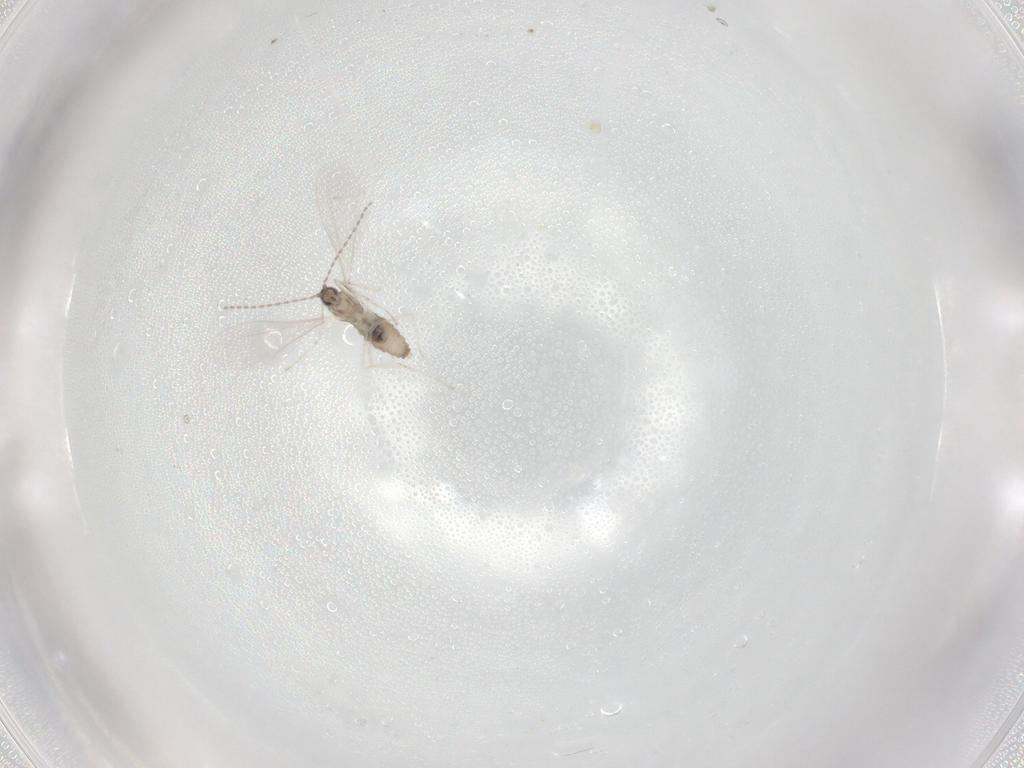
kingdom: Animalia
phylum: Arthropoda
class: Insecta
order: Diptera
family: Cecidomyiidae
